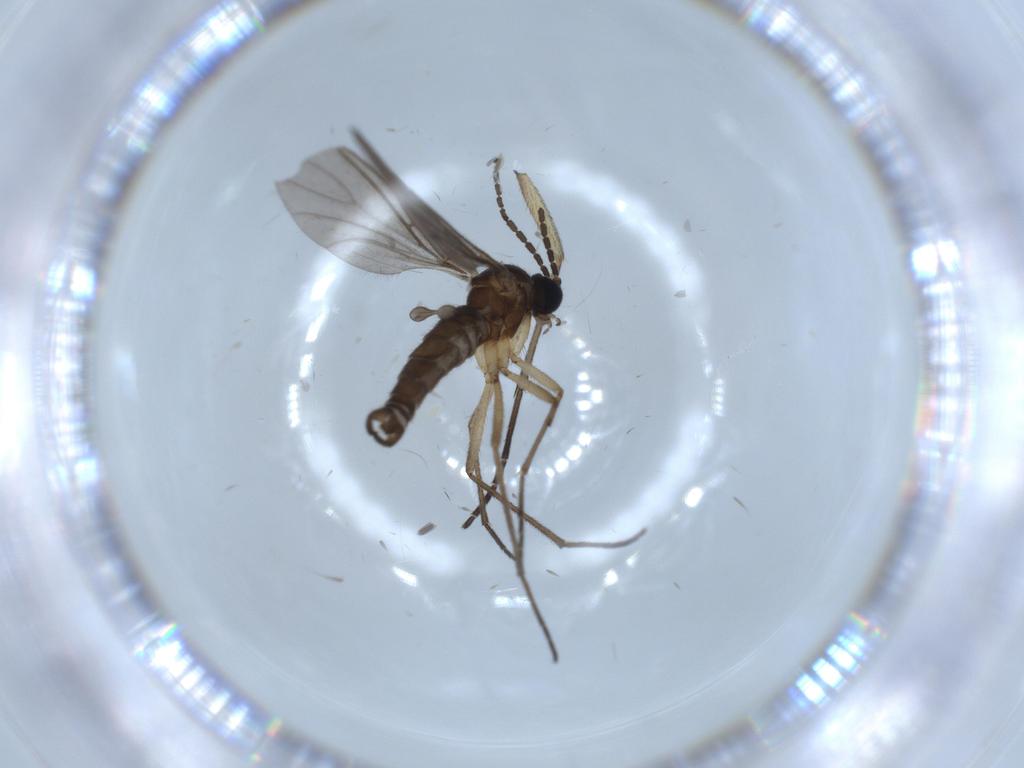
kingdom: Animalia
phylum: Arthropoda
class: Insecta
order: Diptera
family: Sciaridae
